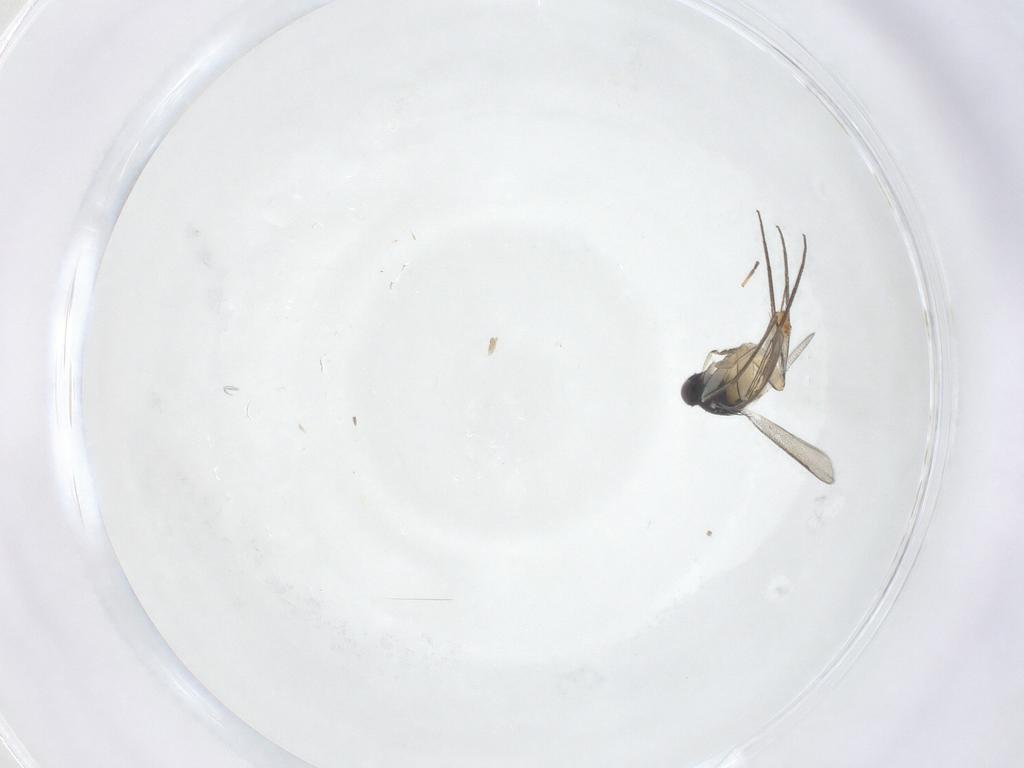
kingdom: Animalia
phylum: Arthropoda
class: Insecta
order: Hymenoptera
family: Eulophidae
